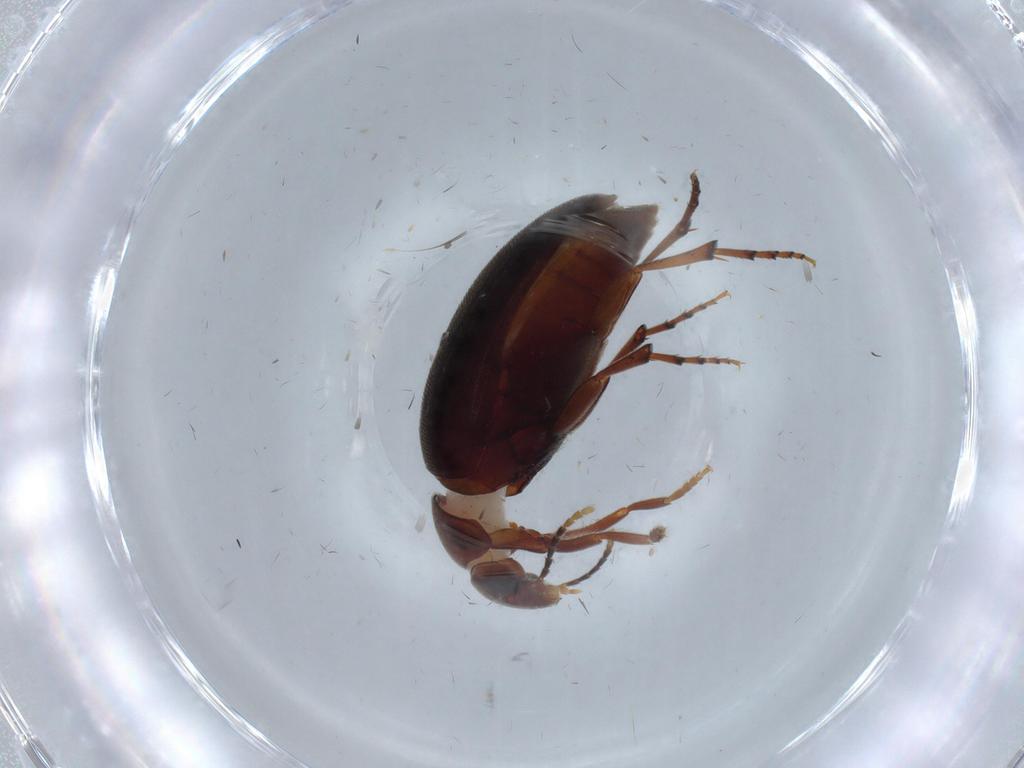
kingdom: Animalia
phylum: Arthropoda
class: Insecta
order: Coleoptera
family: Eucinetidae
